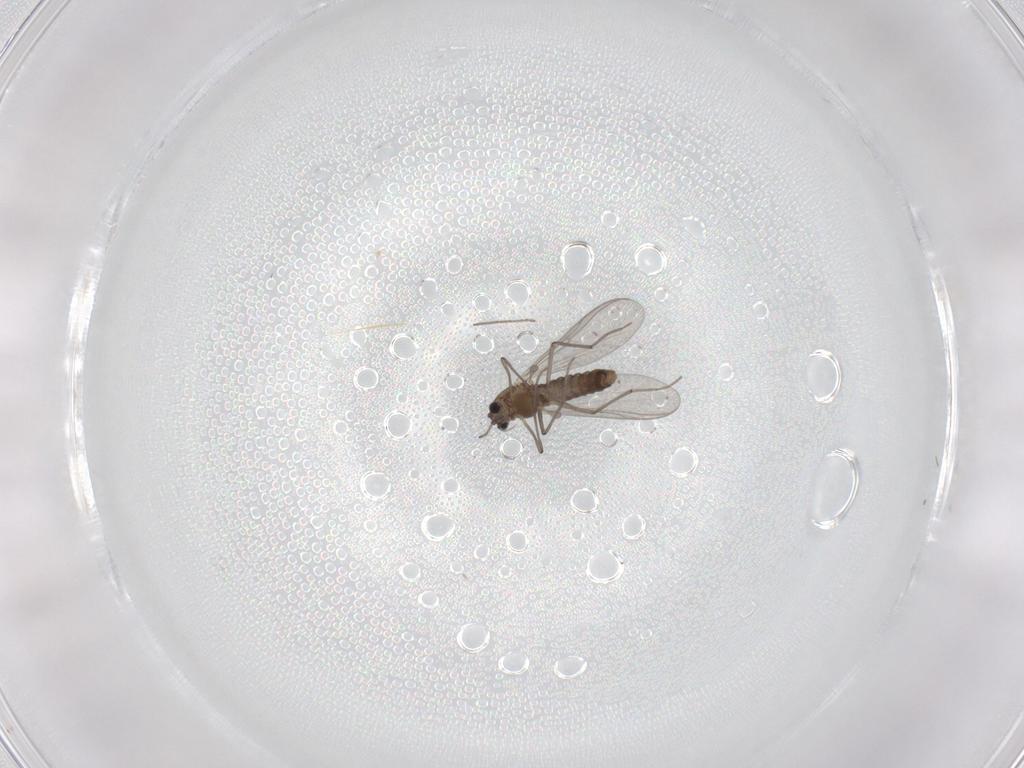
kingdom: Animalia
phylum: Arthropoda
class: Insecta
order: Diptera
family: Chironomidae
